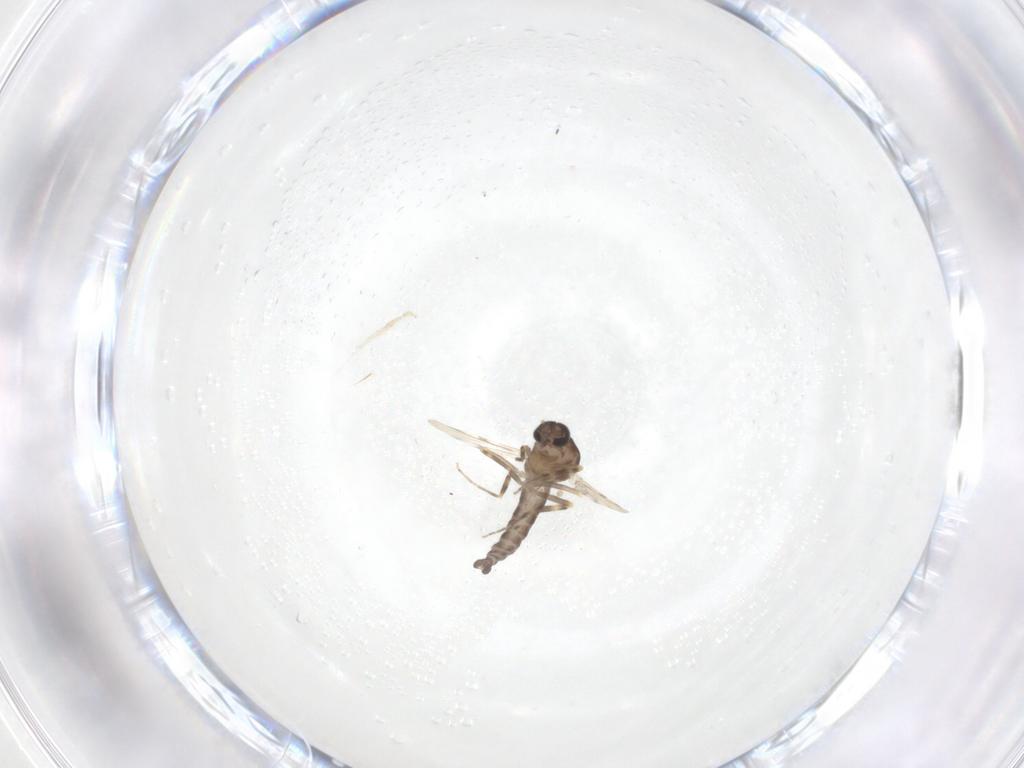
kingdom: Animalia
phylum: Arthropoda
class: Insecta
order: Diptera
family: Ceratopogonidae
